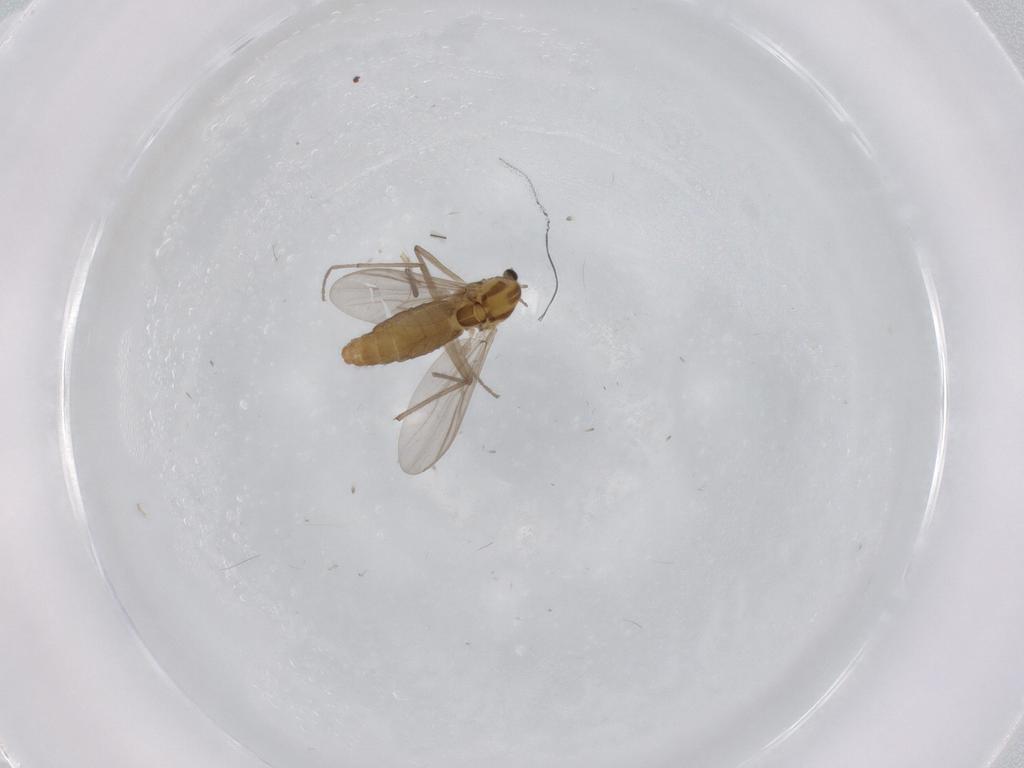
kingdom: Animalia
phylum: Arthropoda
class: Insecta
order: Diptera
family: Chironomidae
